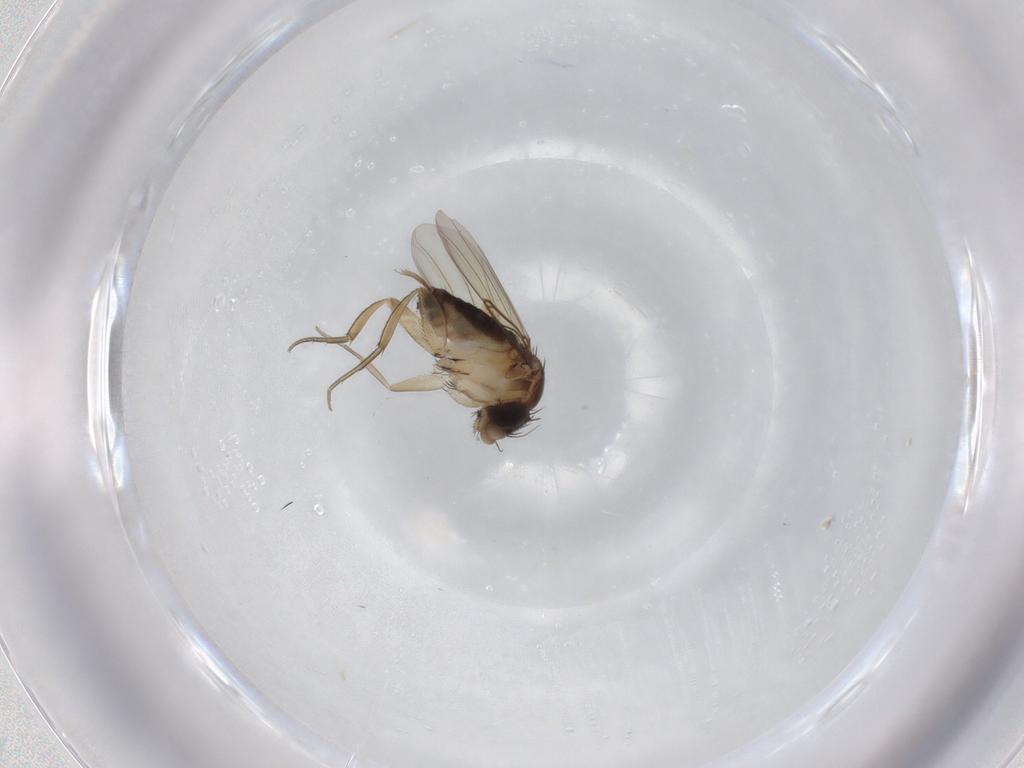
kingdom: Animalia
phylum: Arthropoda
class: Insecta
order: Diptera
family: Phoridae
